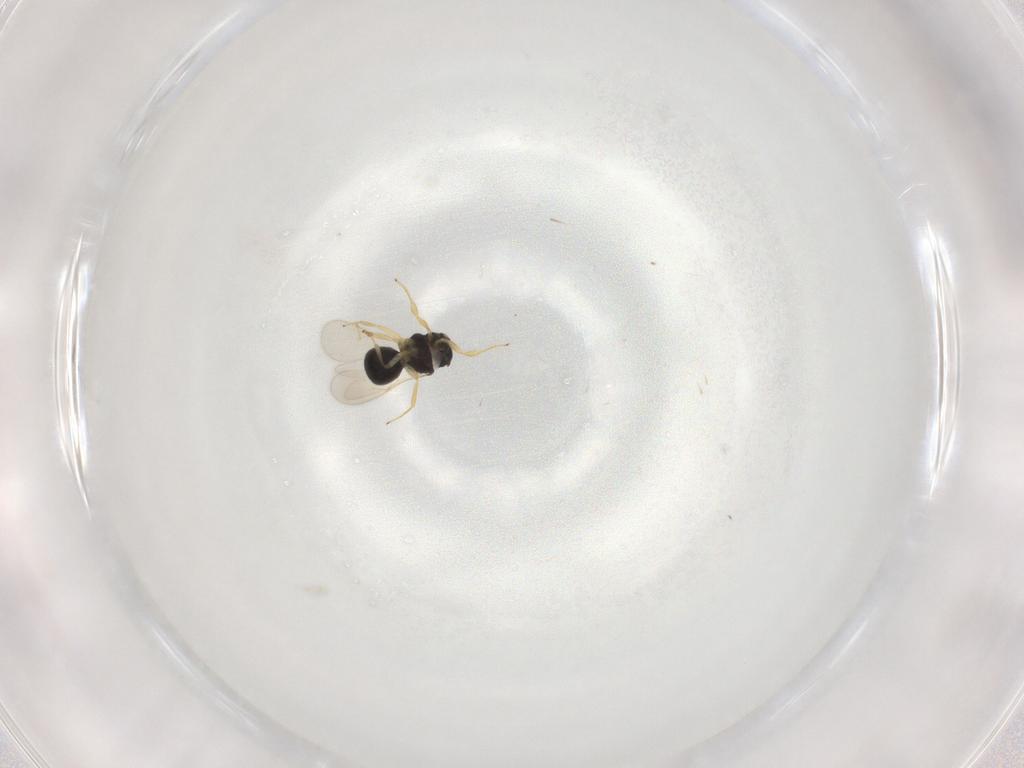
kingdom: Animalia
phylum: Arthropoda
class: Insecta
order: Hymenoptera
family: Scelionidae
